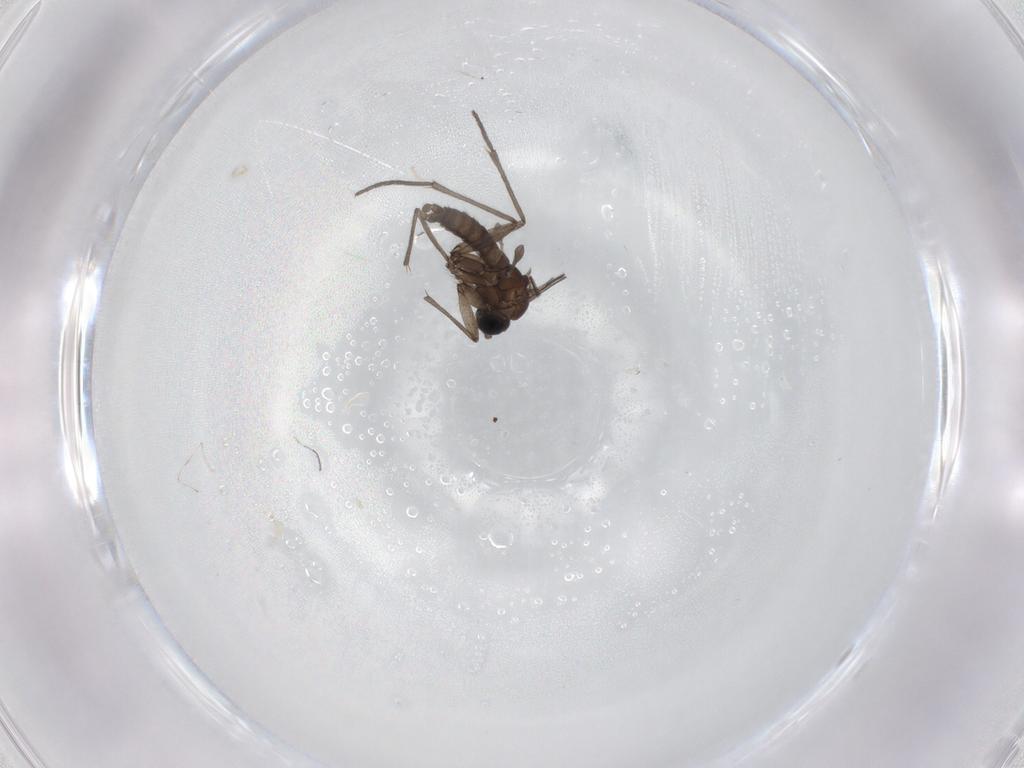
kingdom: Animalia
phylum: Arthropoda
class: Insecta
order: Diptera
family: Sciaridae
